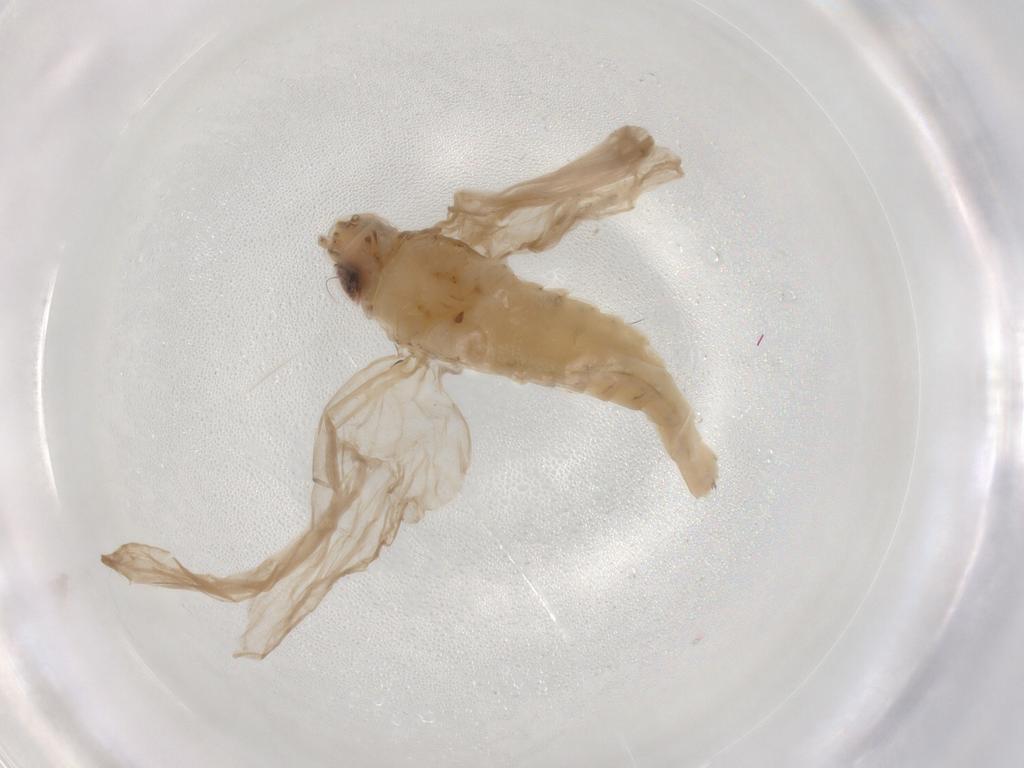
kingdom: Animalia
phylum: Arthropoda
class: Insecta
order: Ephemeroptera
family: Baetidae
